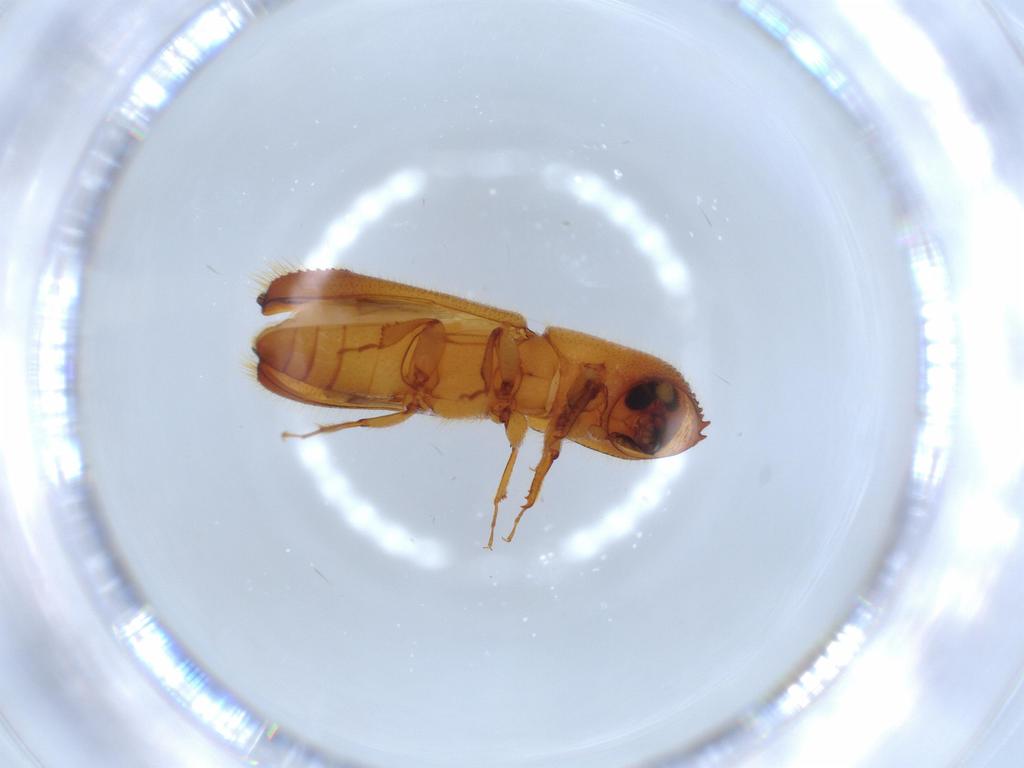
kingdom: Animalia
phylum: Arthropoda
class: Insecta
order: Coleoptera
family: Curculionidae
